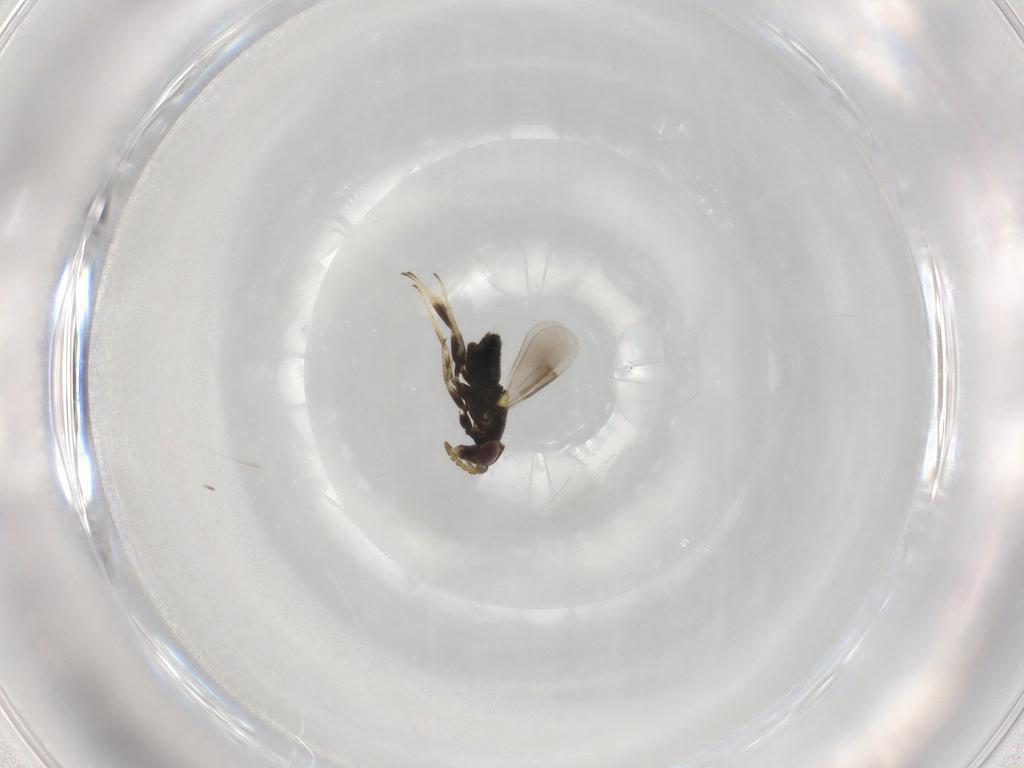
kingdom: Animalia
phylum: Arthropoda
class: Insecta
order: Hymenoptera
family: Aphelinidae
